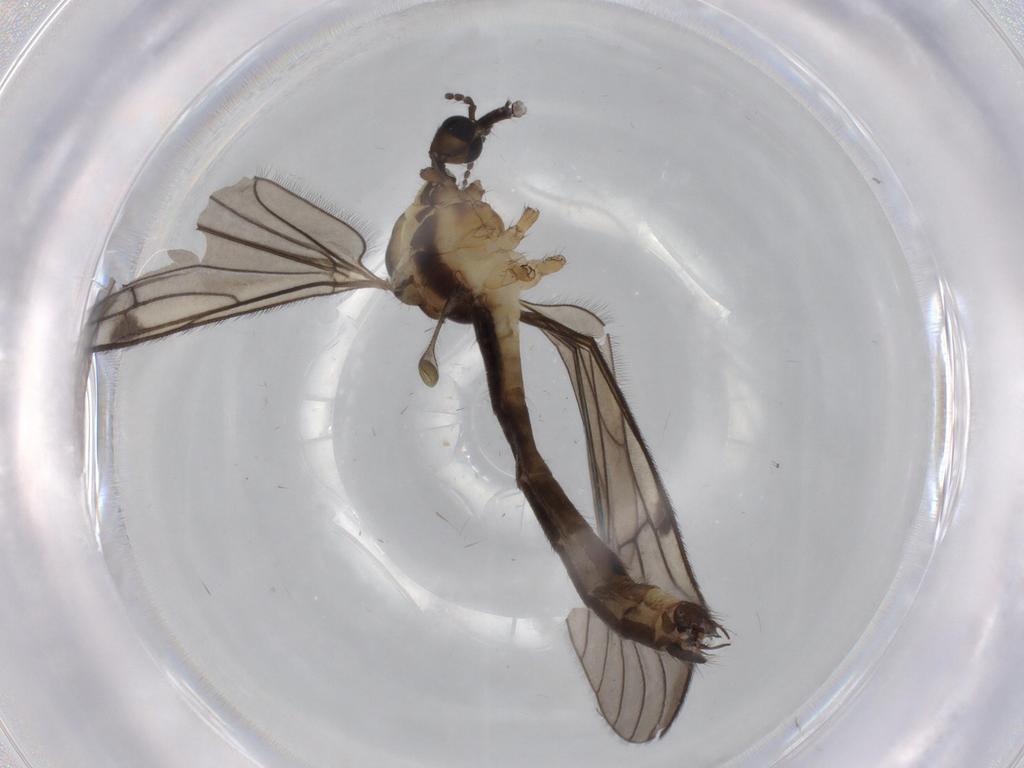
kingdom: Animalia
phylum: Arthropoda
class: Insecta
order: Diptera
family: Limoniidae
